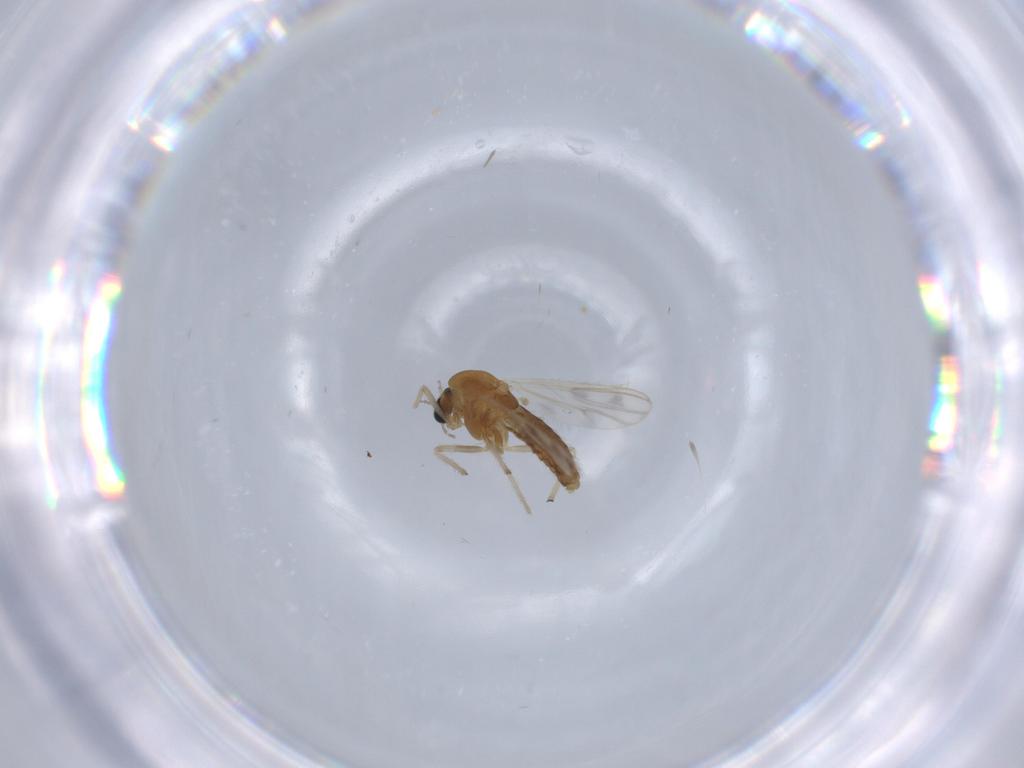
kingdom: Animalia
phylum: Arthropoda
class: Insecta
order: Diptera
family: Chironomidae
